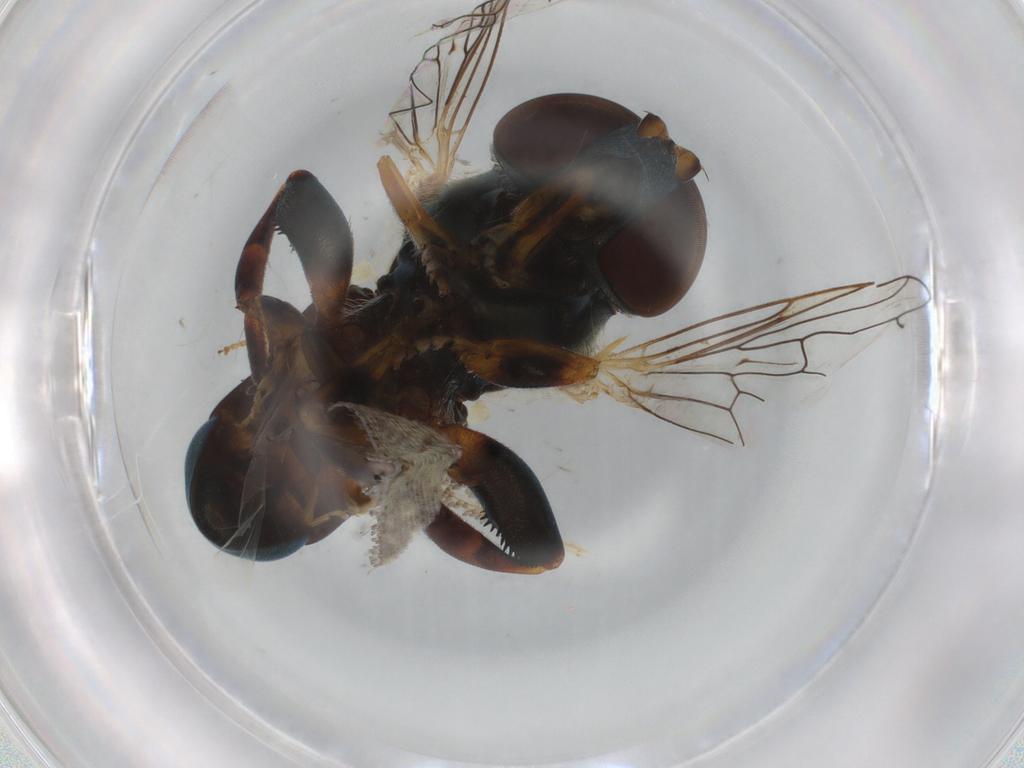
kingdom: Animalia
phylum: Arthropoda
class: Insecta
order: Diptera
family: Syrphidae
